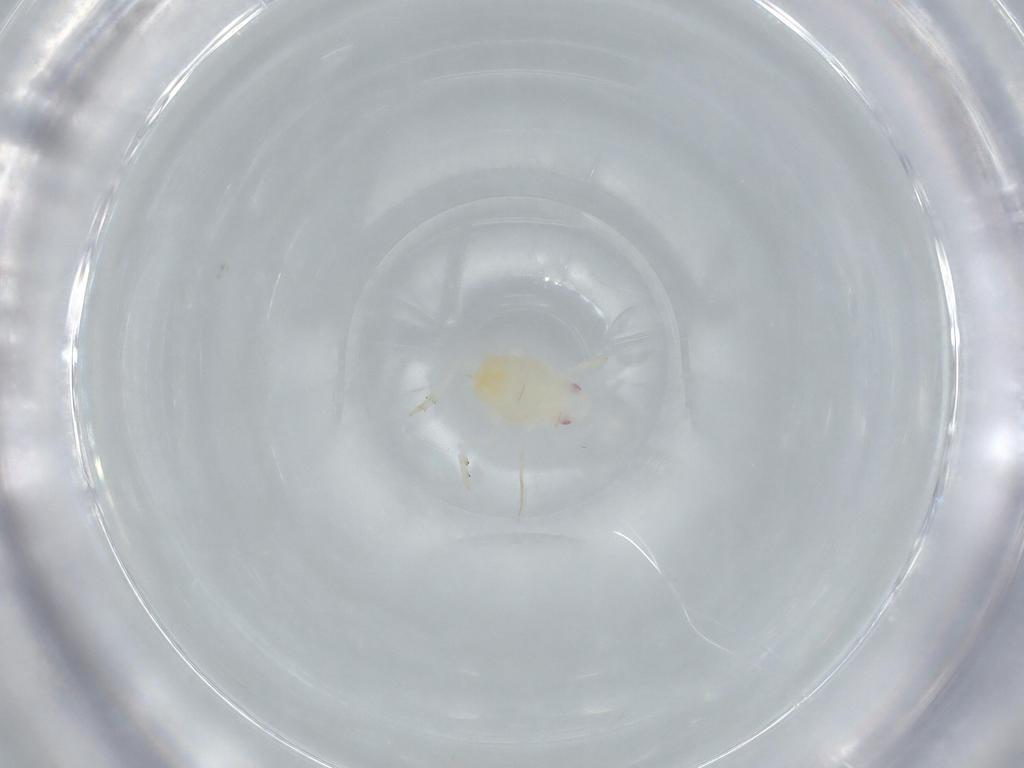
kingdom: Animalia
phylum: Arthropoda
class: Insecta
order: Hemiptera
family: Flatidae
